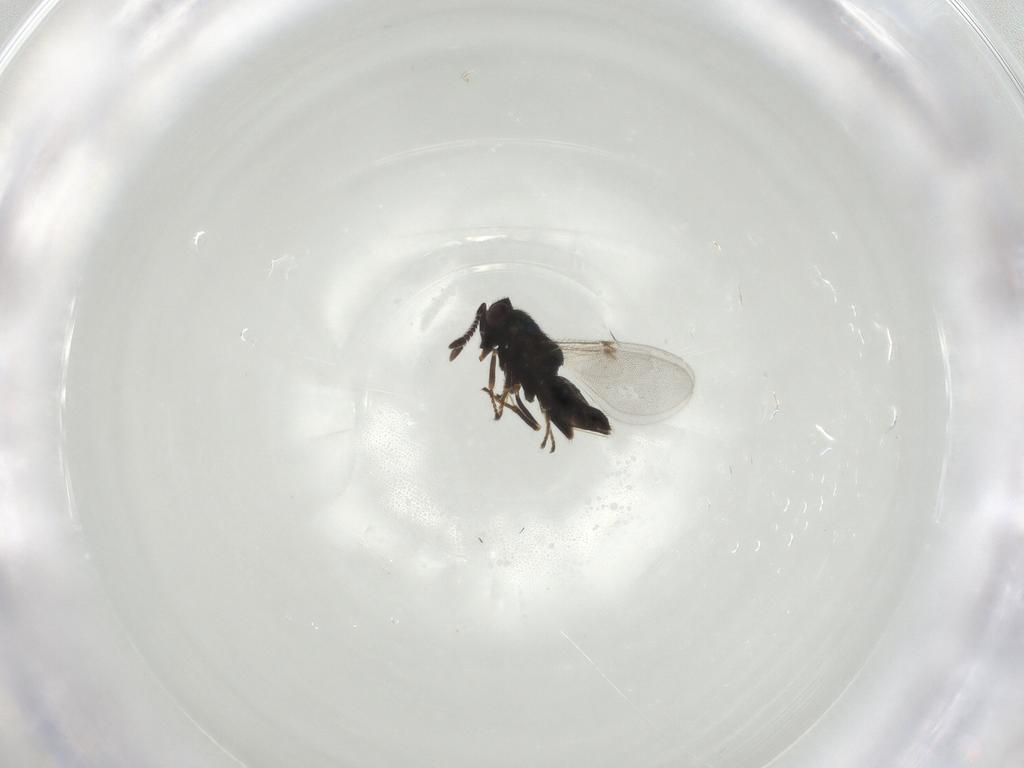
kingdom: Animalia
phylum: Arthropoda
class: Insecta
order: Hymenoptera
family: Encyrtidae
